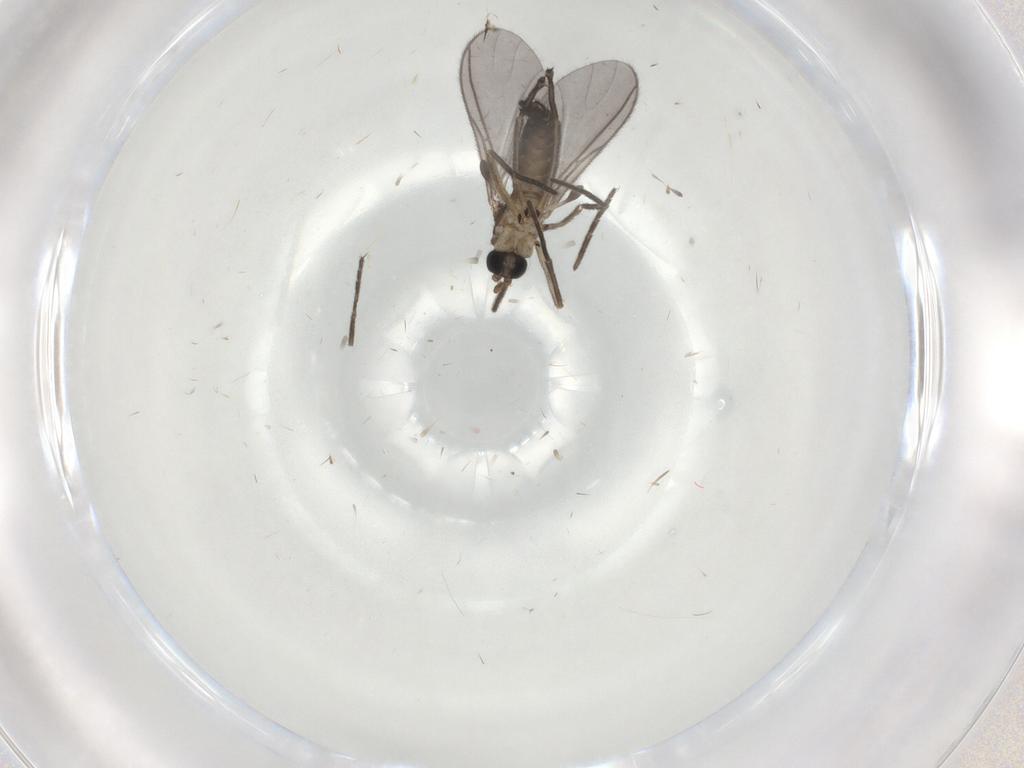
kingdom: Animalia
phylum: Arthropoda
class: Insecta
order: Diptera
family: Sciaridae
